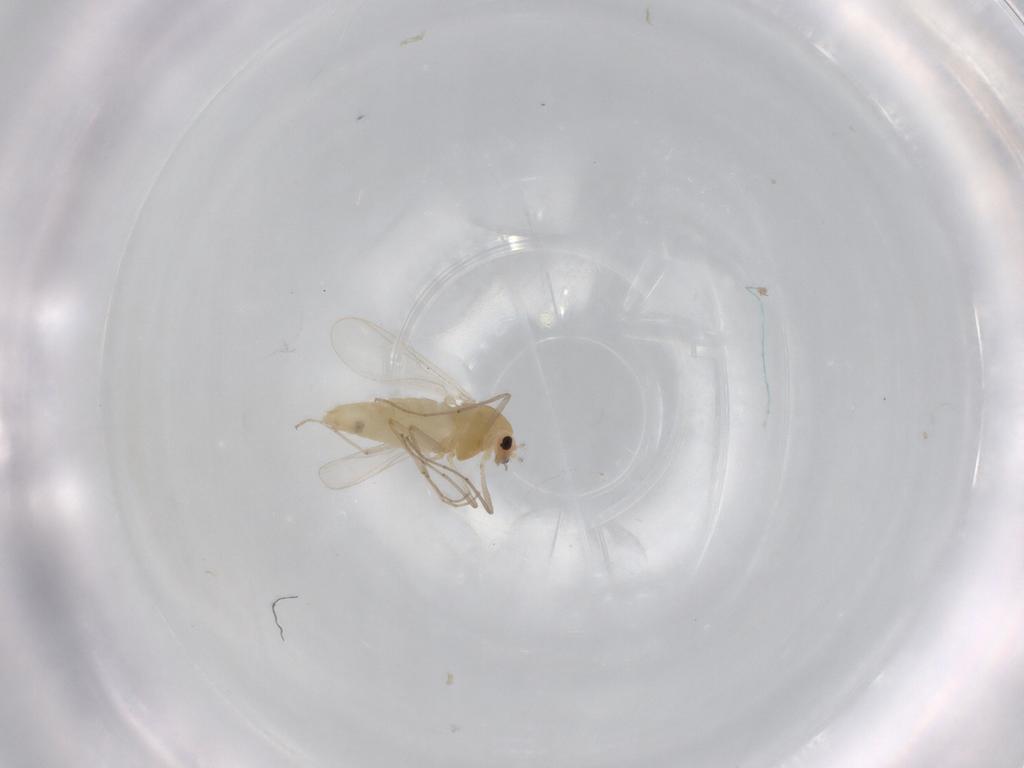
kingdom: Animalia
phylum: Arthropoda
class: Insecta
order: Diptera
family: Chironomidae
